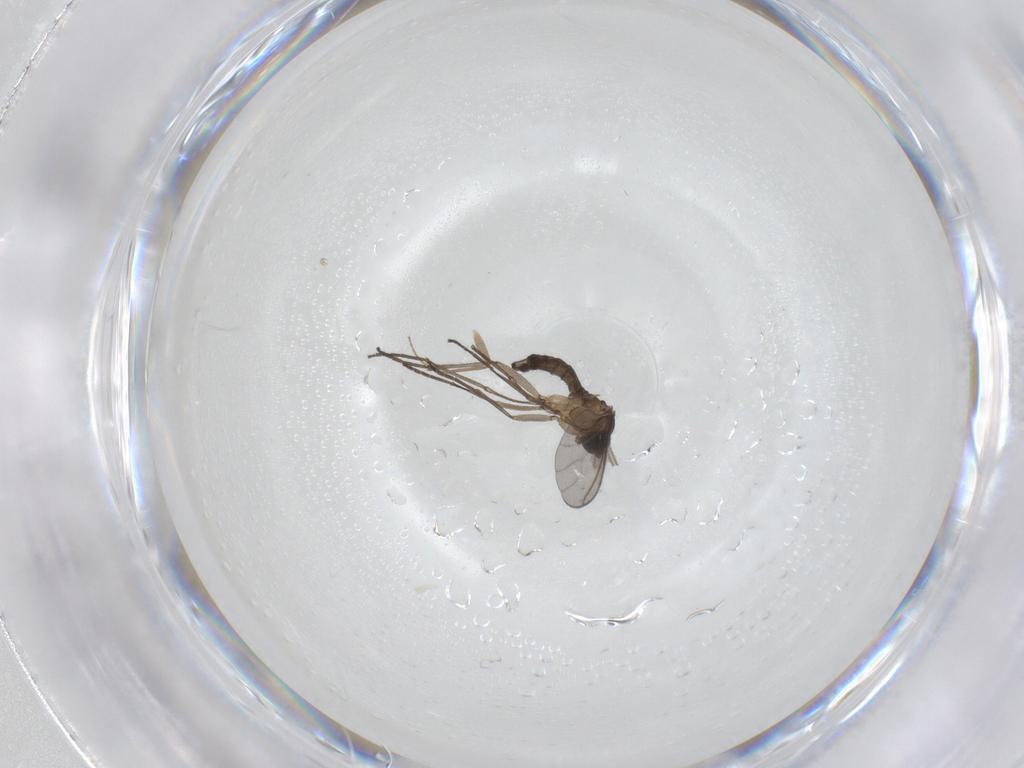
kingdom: Animalia
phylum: Arthropoda
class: Insecta
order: Diptera
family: Sciaridae
